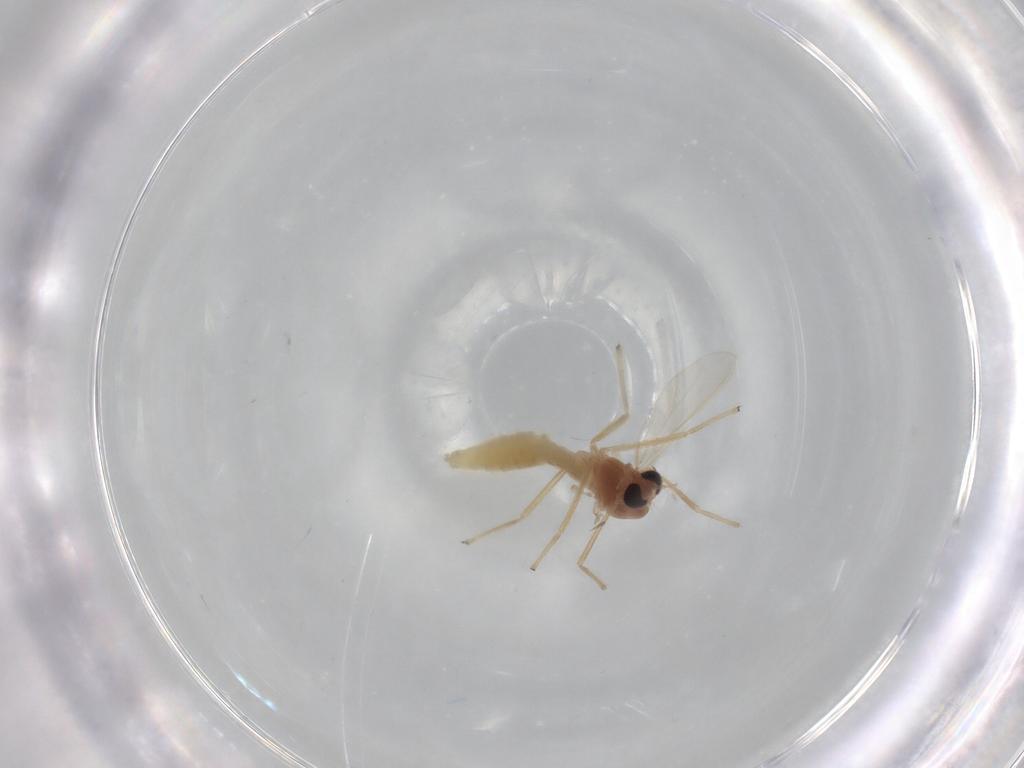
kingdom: Animalia
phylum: Arthropoda
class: Insecta
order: Diptera
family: Chironomidae
